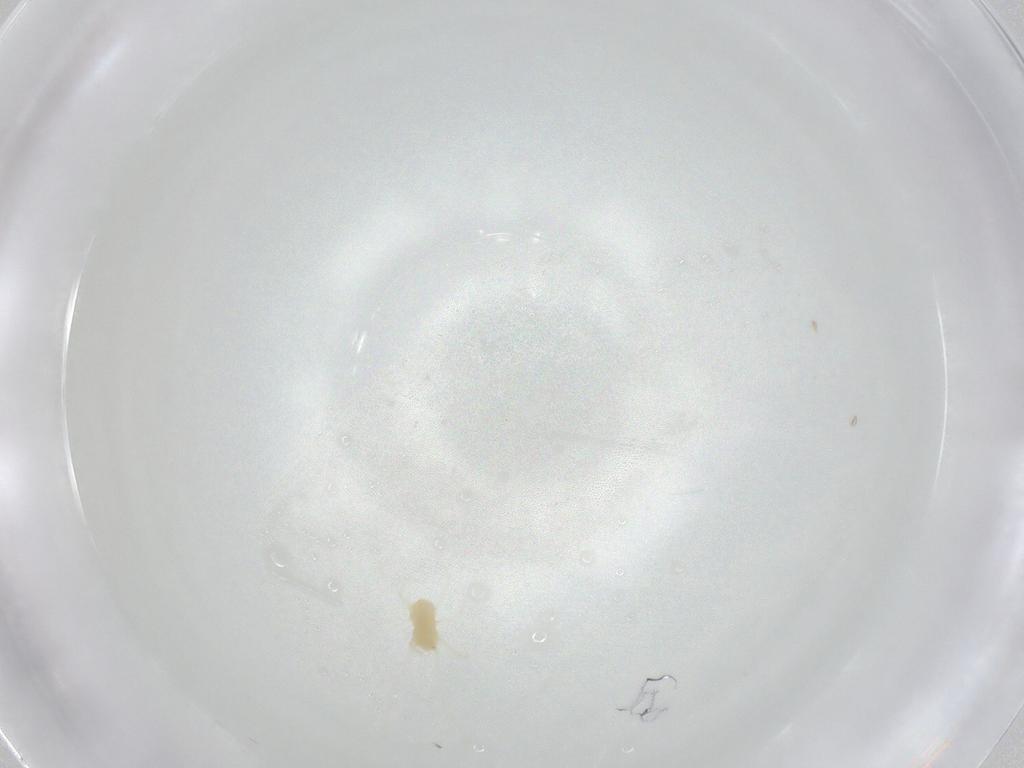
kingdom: Animalia
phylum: Arthropoda
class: Arachnida
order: Trombidiformes
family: Tetranychidae
